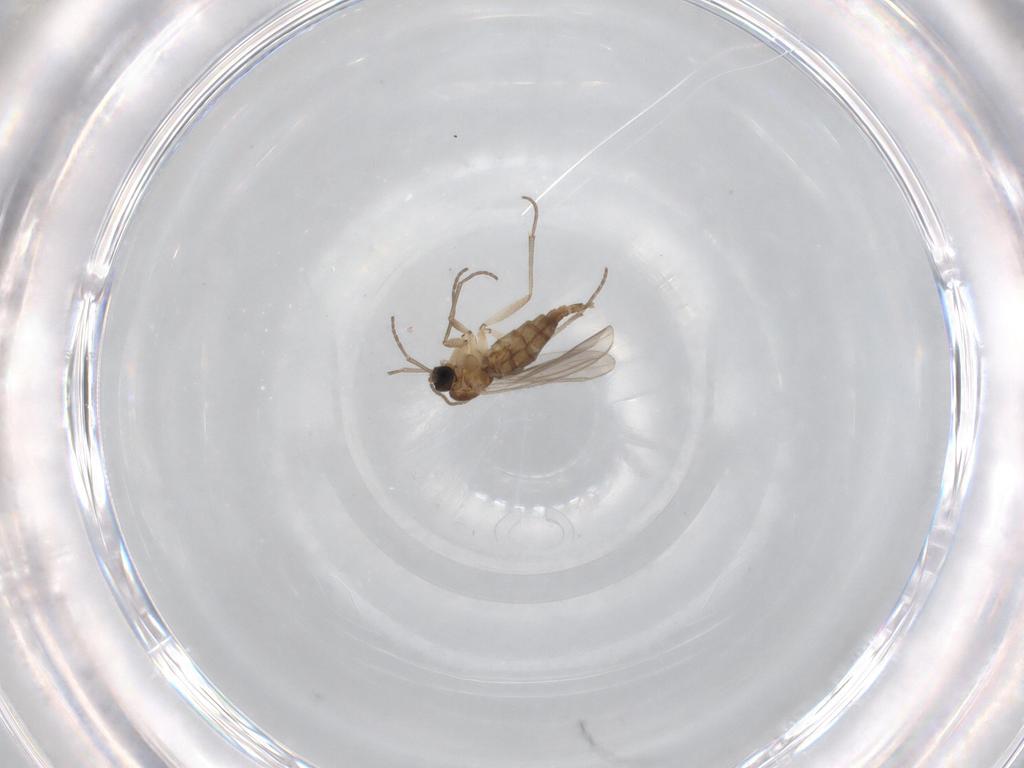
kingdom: Animalia
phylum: Arthropoda
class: Insecta
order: Diptera
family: Sciaridae
